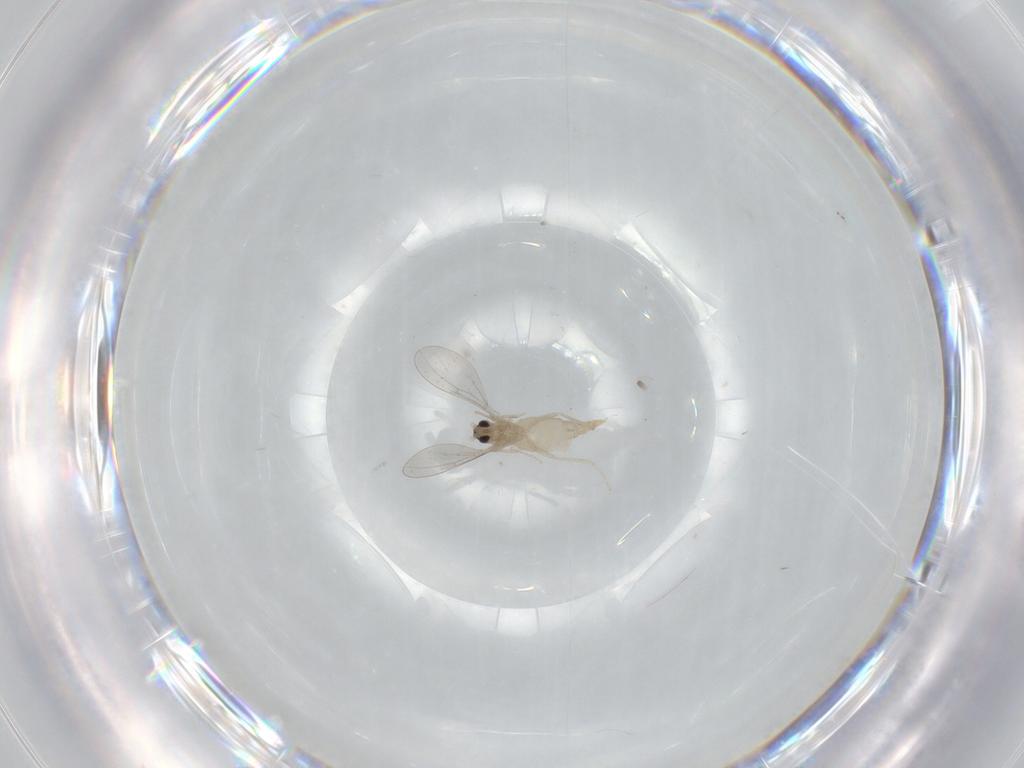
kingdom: Animalia
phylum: Arthropoda
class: Insecta
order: Diptera
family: Cecidomyiidae
